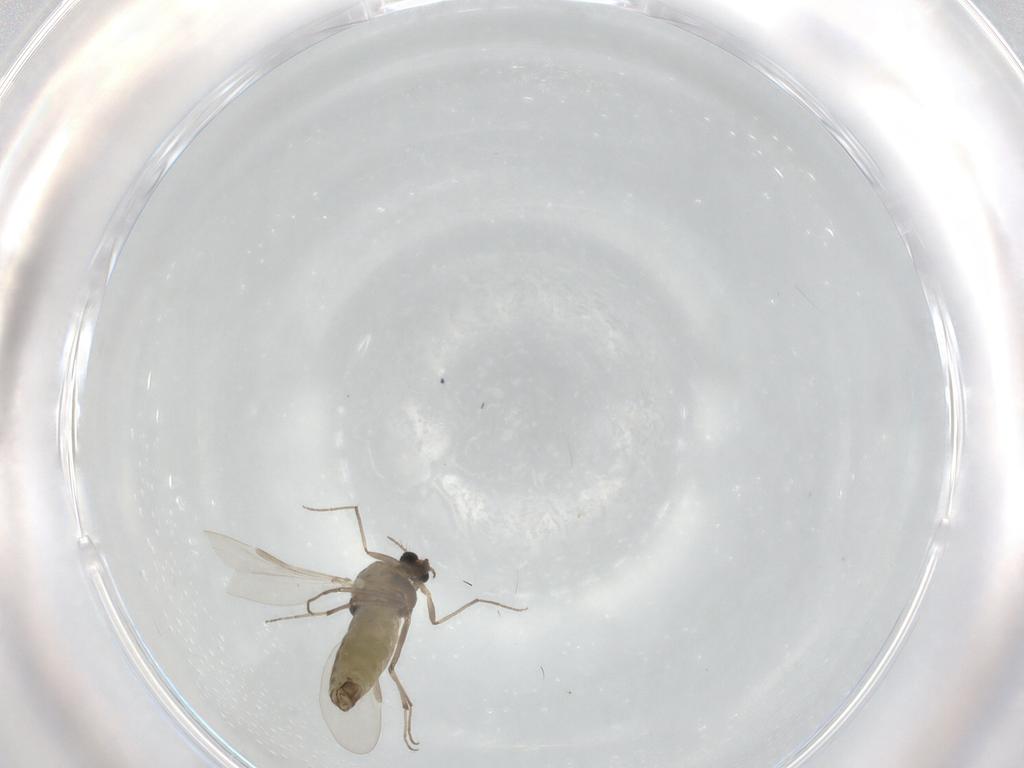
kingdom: Animalia
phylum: Arthropoda
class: Insecta
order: Diptera
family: Chironomidae
